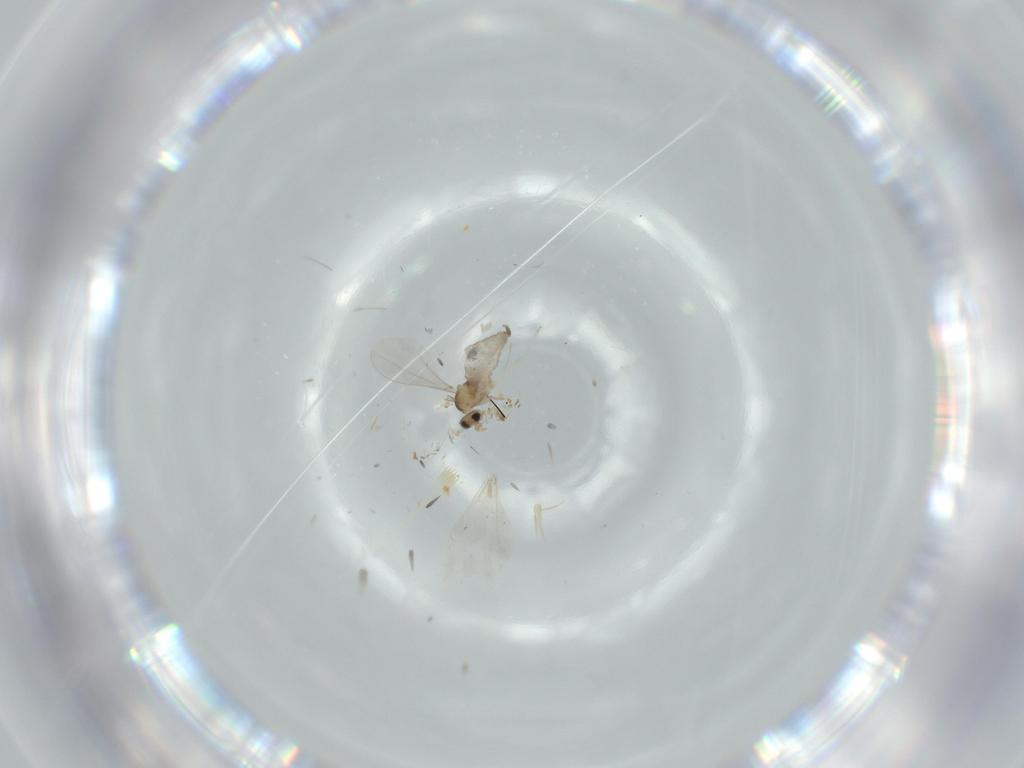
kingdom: Animalia
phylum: Arthropoda
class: Insecta
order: Diptera
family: Cecidomyiidae
